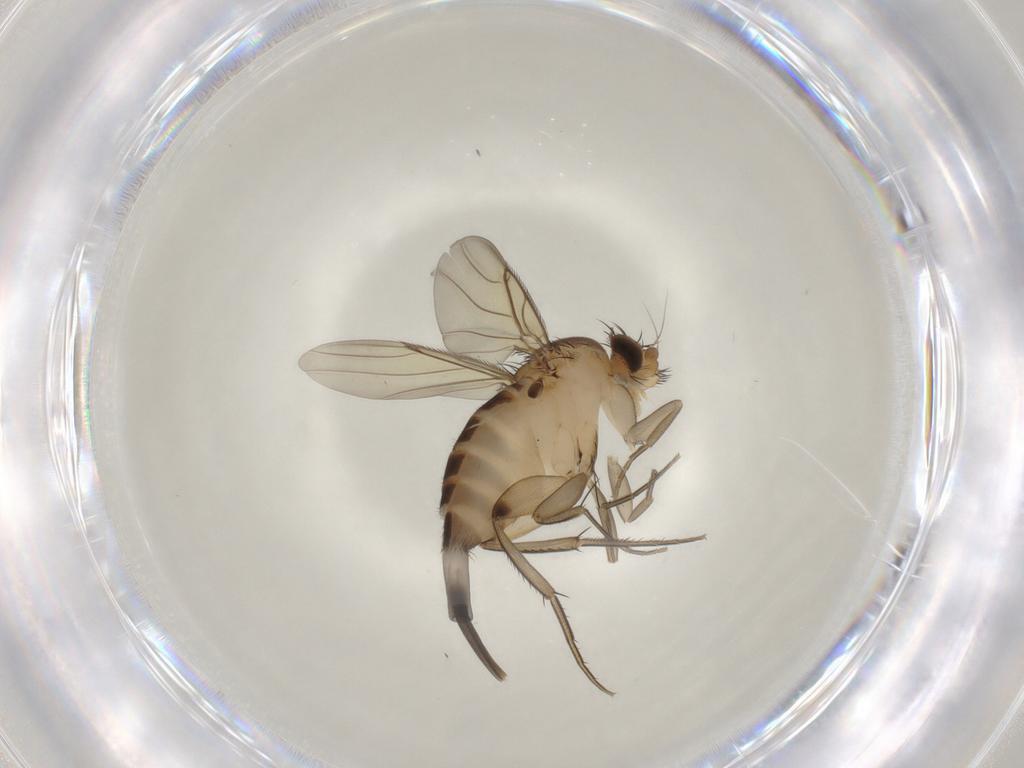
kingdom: Animalia
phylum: Arthropoda
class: Insecta
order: Diptera
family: Phoridae
